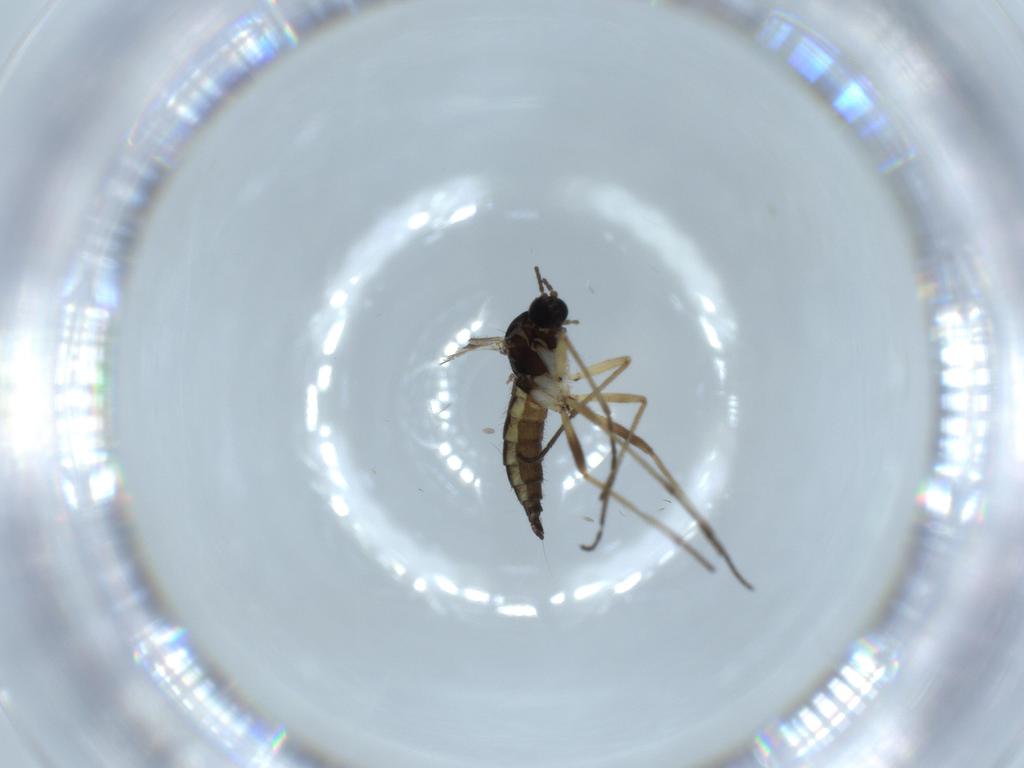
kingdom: Animalia
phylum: Arthropoda
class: Insecta
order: Diptera
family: Sciaridae
